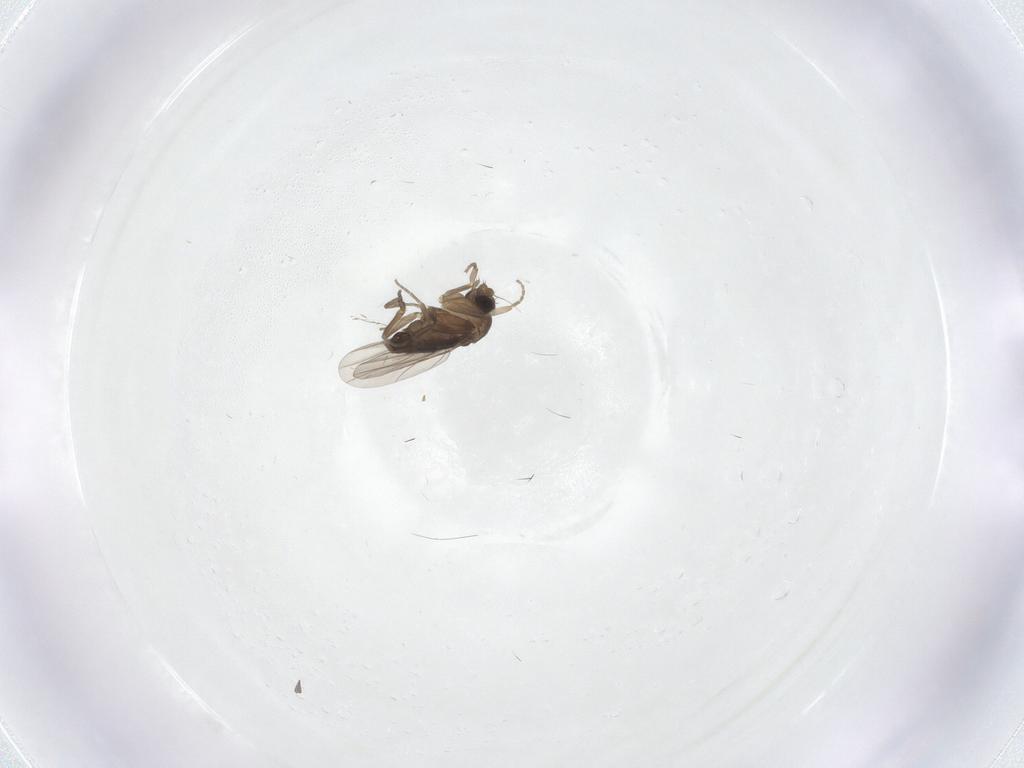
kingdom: Animalia
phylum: Arthropoda
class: Insecta
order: Diptera
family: Phoridae
